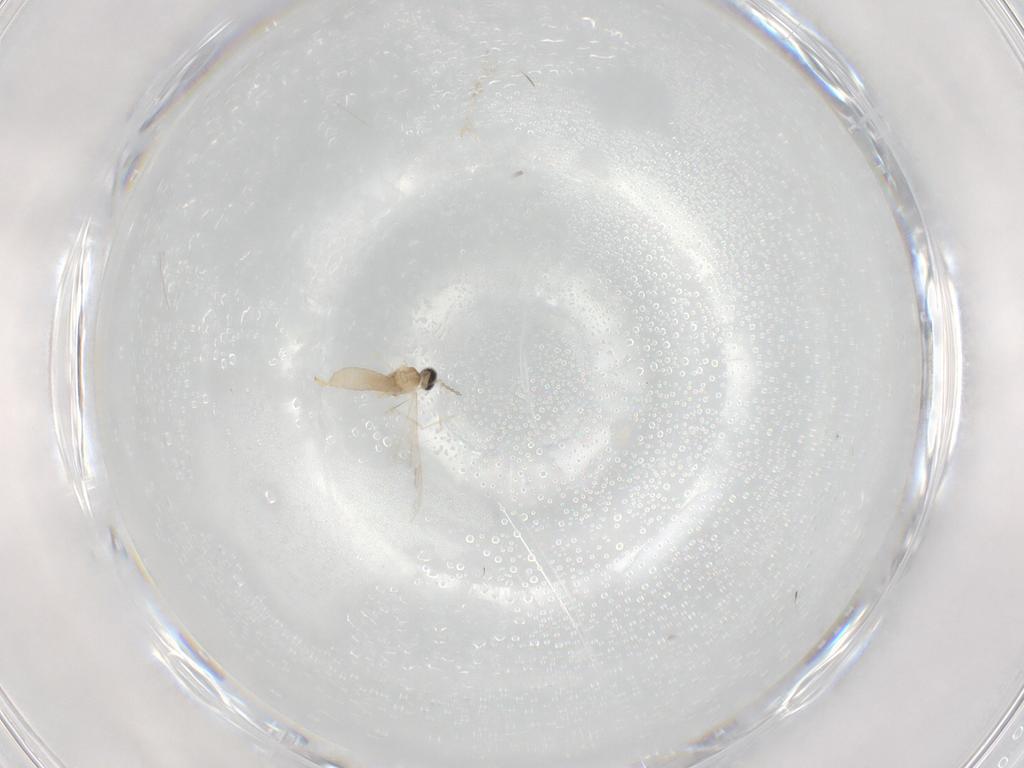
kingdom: Animalia
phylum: Arthropoda
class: Insecta
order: Diptera
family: Cecidomyiidae
